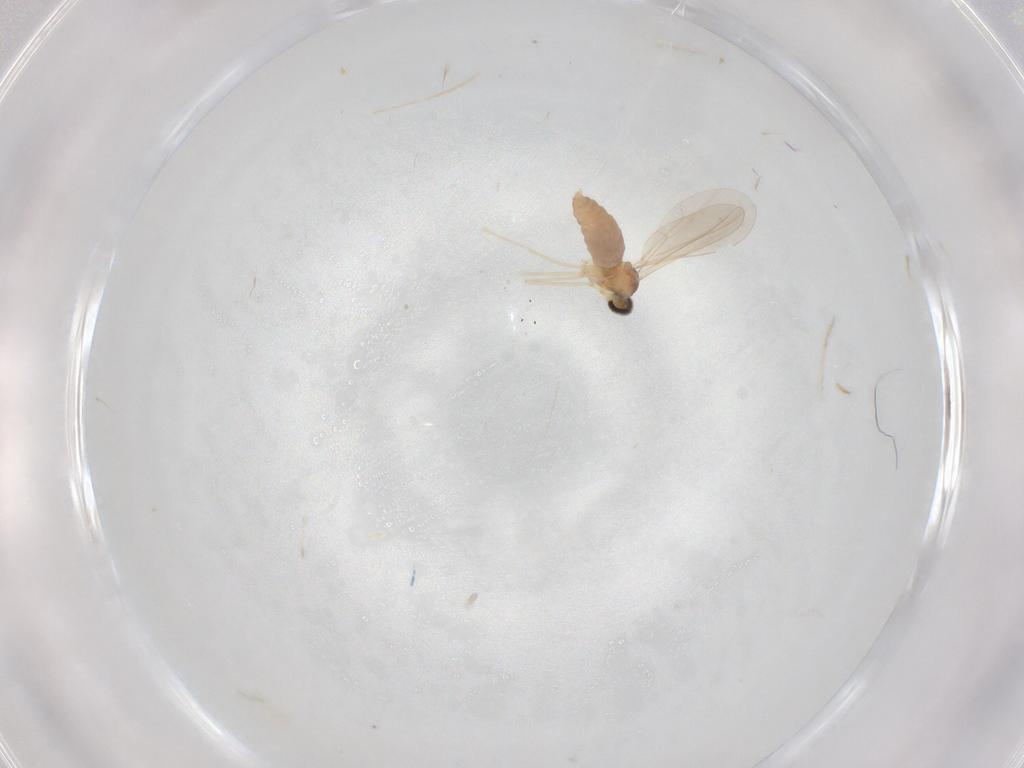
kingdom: Animalia
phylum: Arthropoda
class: Insecta
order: Diptera
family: Cecidomyiidae
